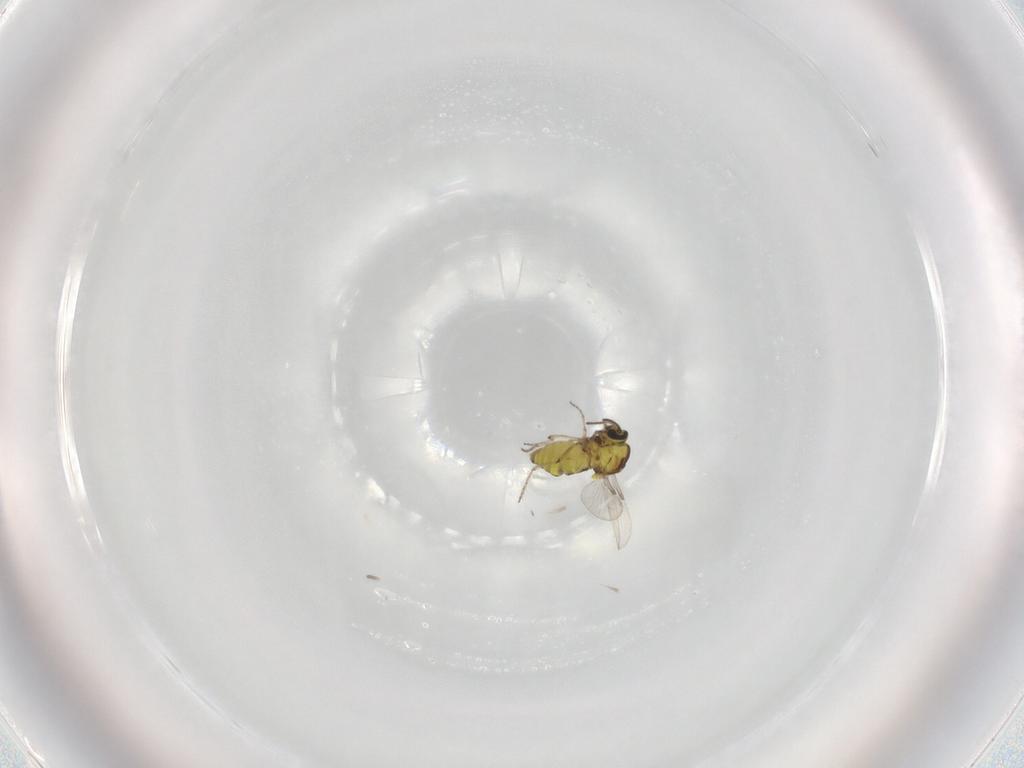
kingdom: Animalia
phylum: Arthropoda
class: Insecta
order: Diptera
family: Ceratopogonidae
